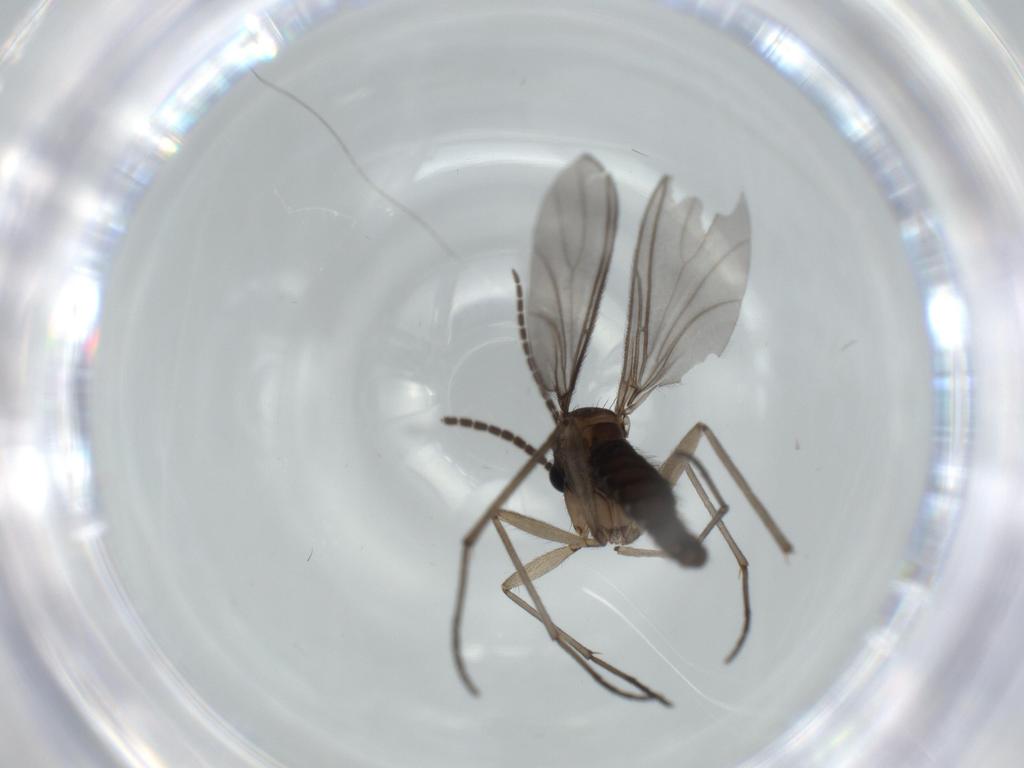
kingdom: Animalia
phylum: Arthropoda
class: Insecta
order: Diptera
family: Sciaridae
